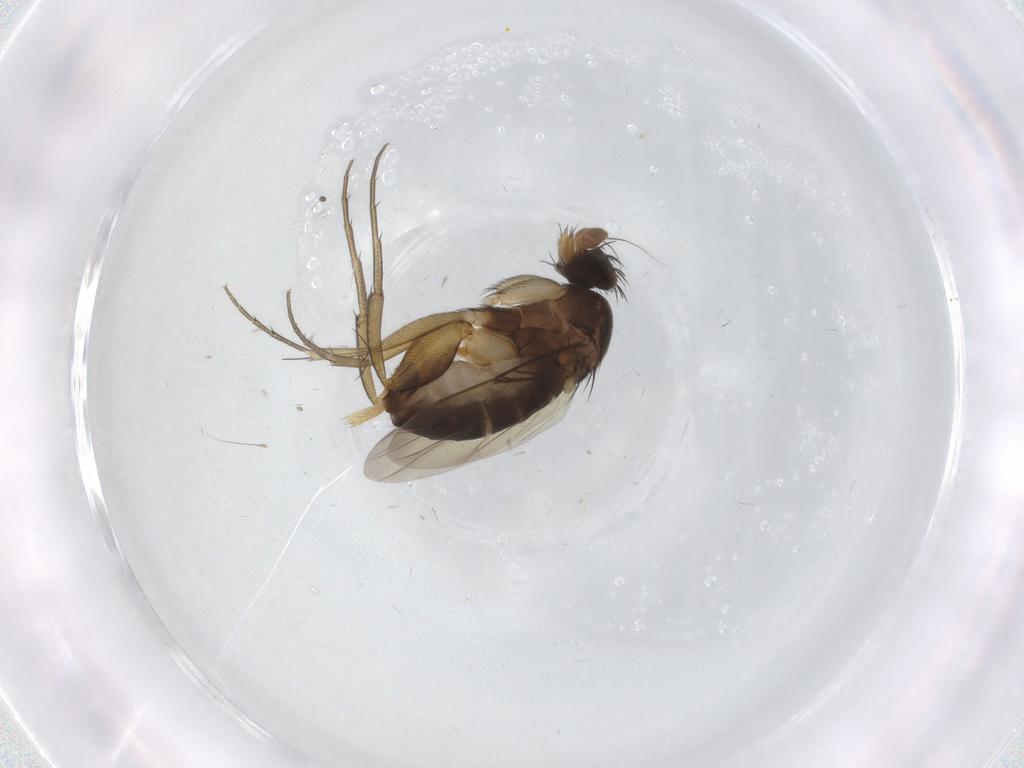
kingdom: Animalia
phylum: Arthropoda
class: Insecta
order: Diptera
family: Phoridae
